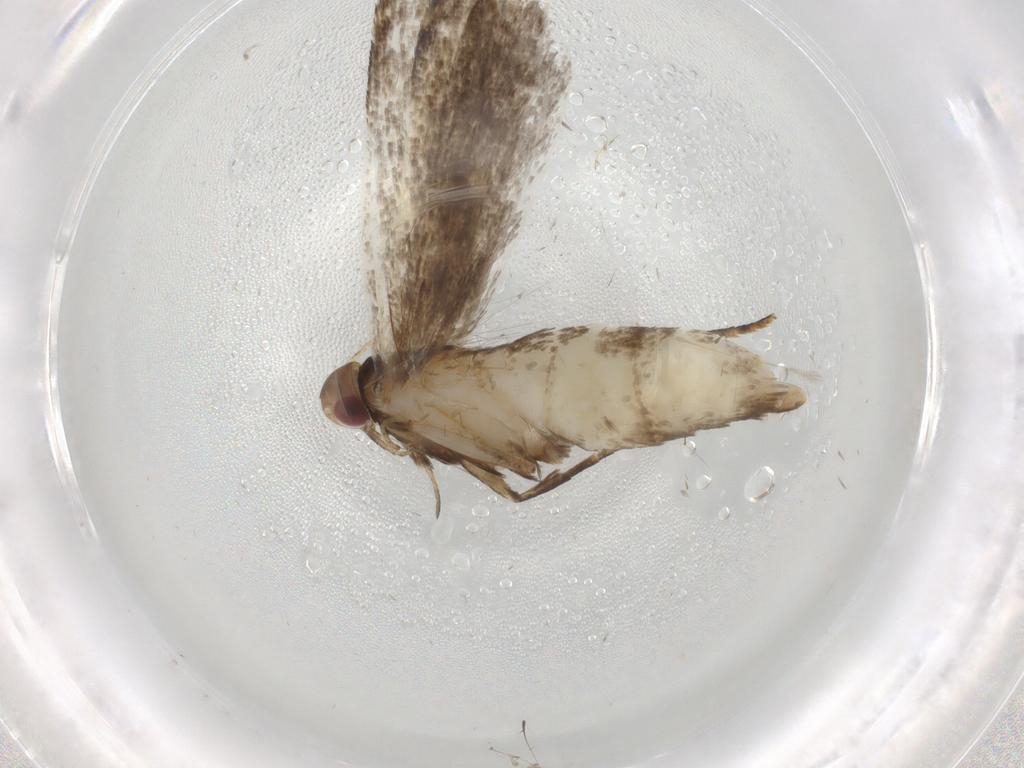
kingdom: Animalia
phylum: Arthropoda
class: Insecta
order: Lepidoptera
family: Gelechiidae
